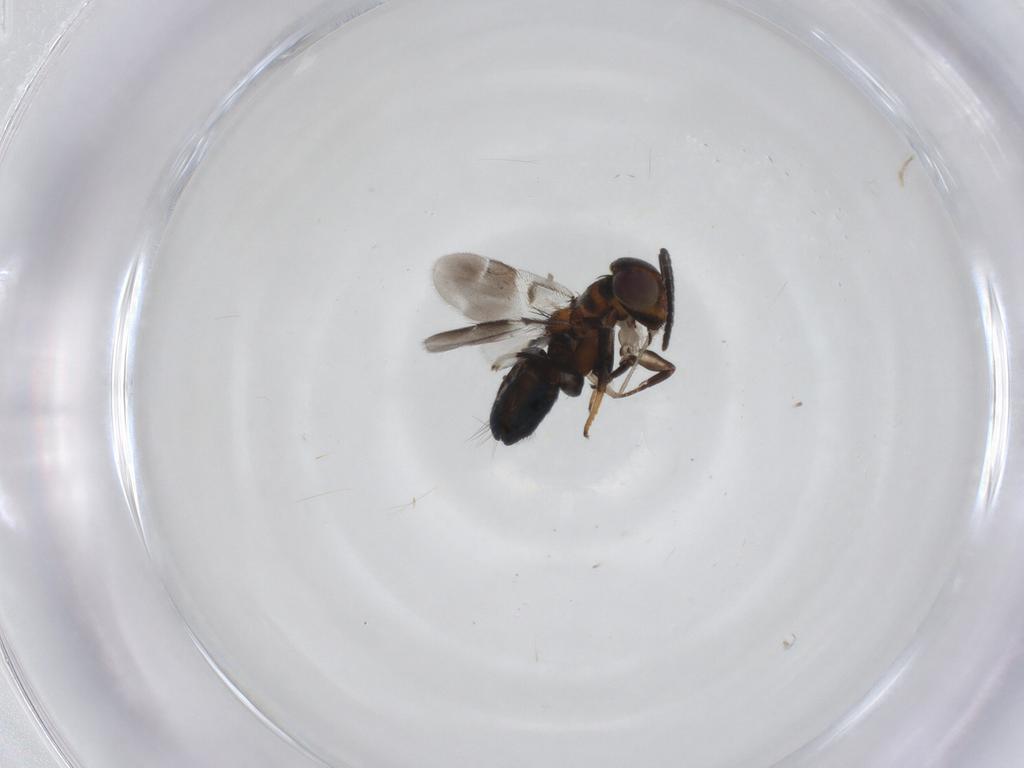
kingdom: Animalia
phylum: Arthropoda
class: Insecta
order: Hymenoptera
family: Encyrtidae
